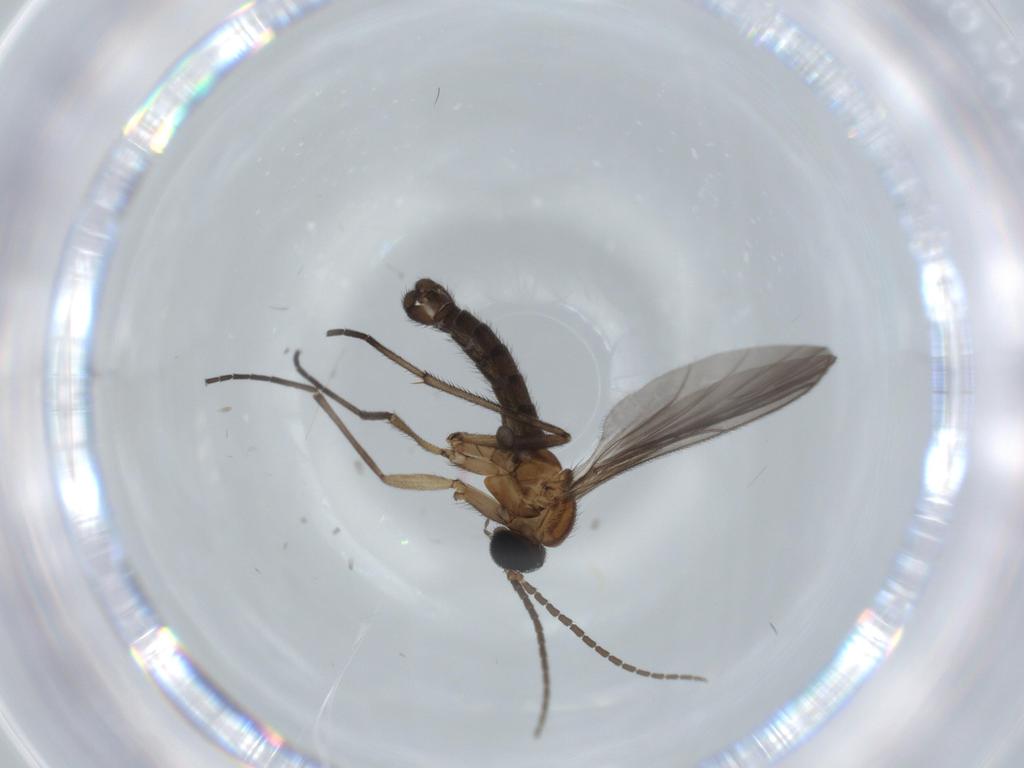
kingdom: Animalia
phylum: Arthropoda
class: Insecta
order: Diptera
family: Sciaridae
